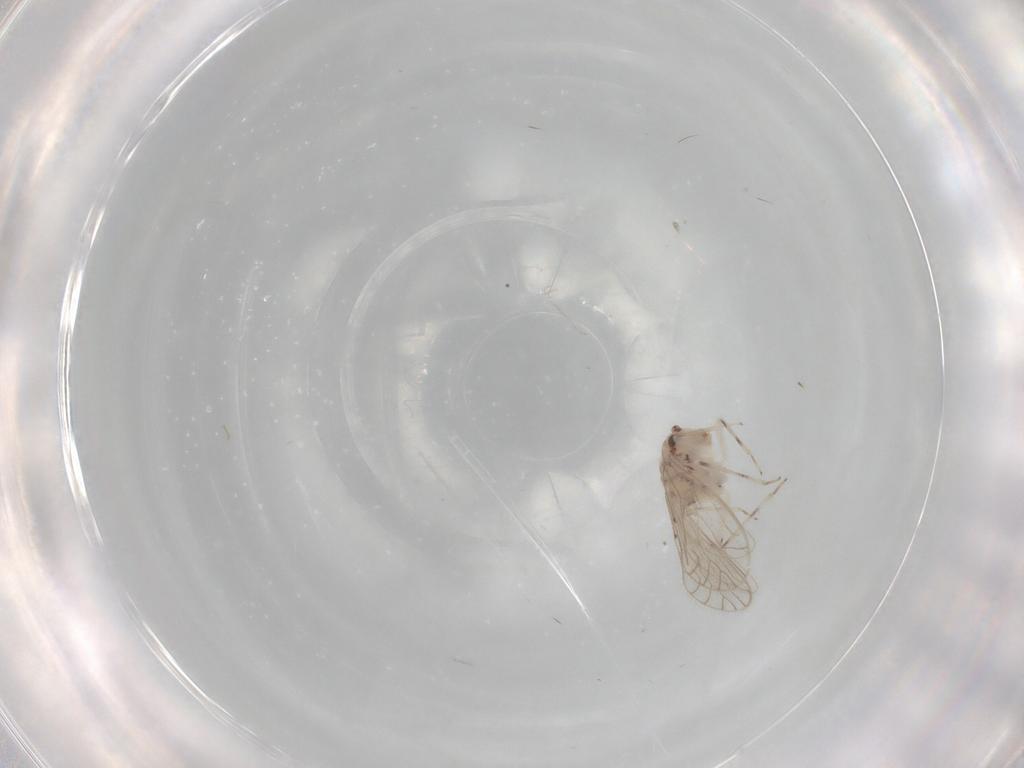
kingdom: Animalia
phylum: Arthropoda
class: Insecta
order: Psocodea
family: Caeciliusidae
